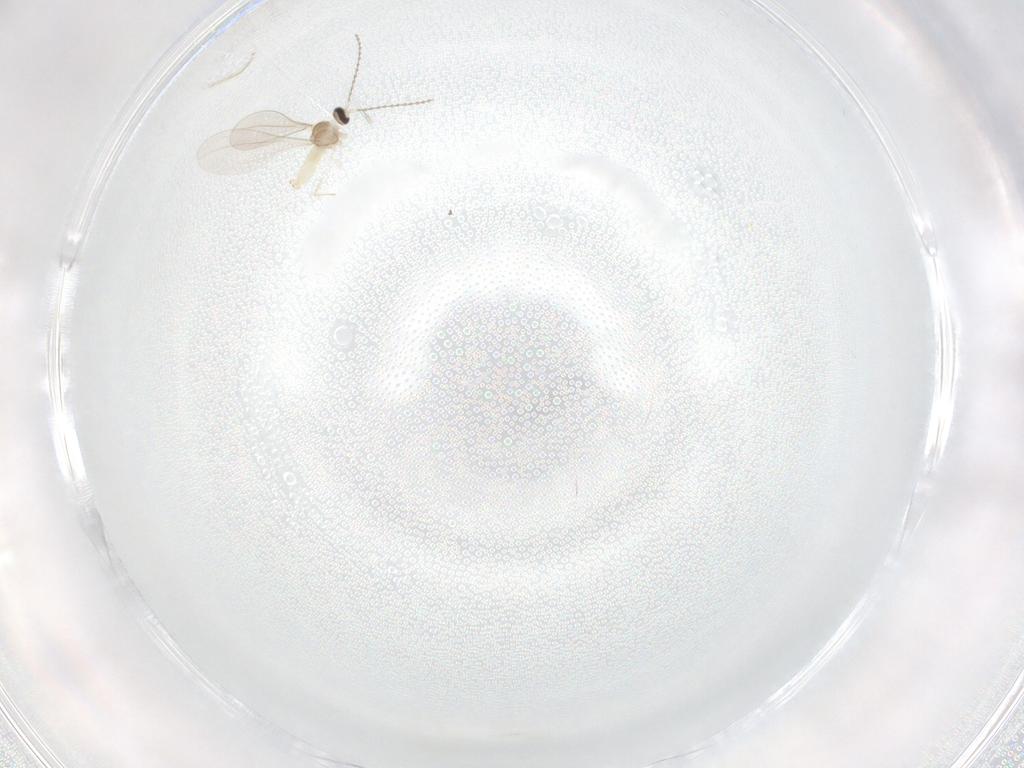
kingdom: Animalia
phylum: Arthropoda
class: Insecta
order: Diptera
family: Cecidomyiidae
